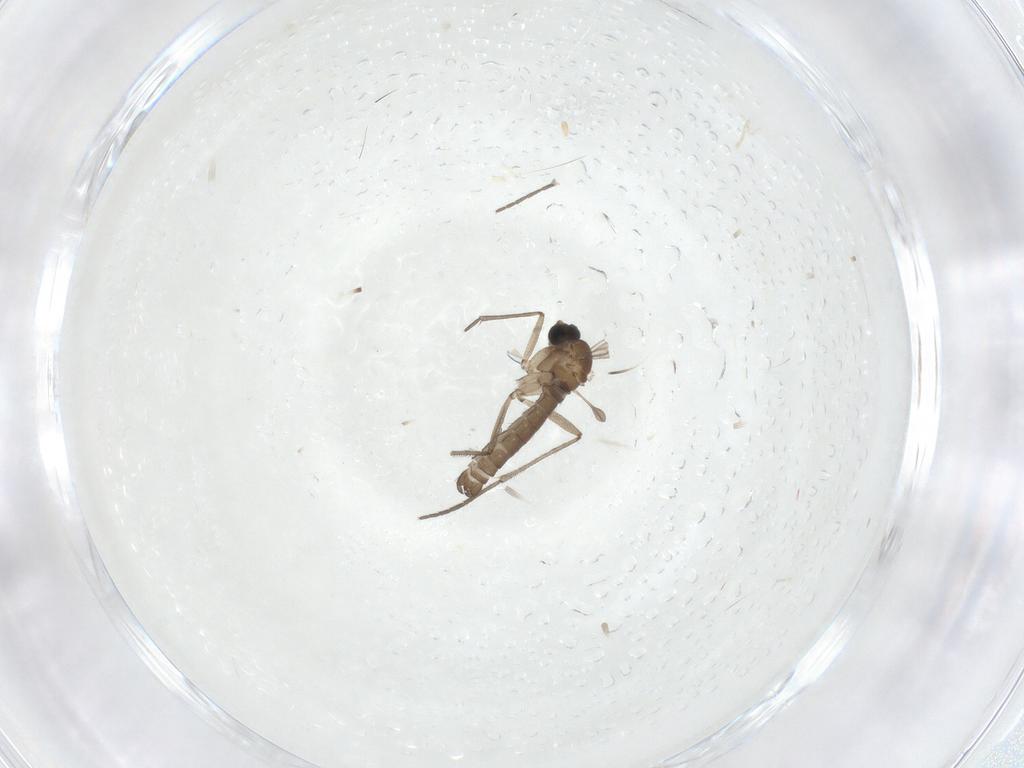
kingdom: Animalia
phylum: Arthropoda
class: Insecta
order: Diptera
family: Sciaridae
